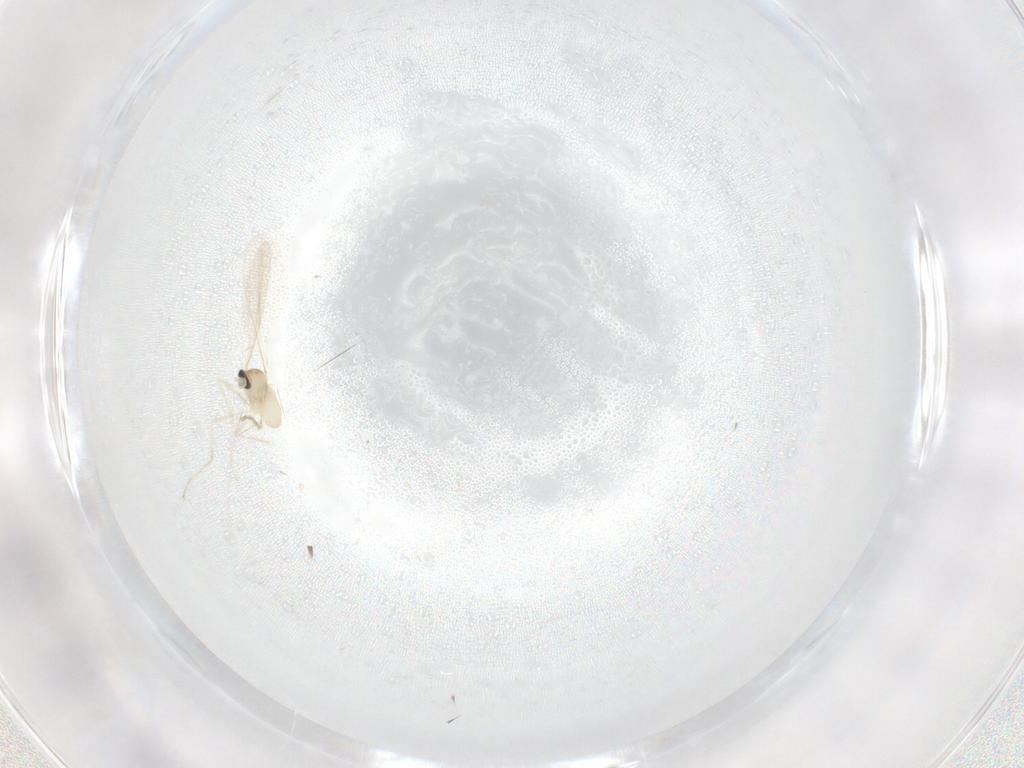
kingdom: Animalia
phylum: Arthropoda
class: Insecta
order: Diptera
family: Cecidomyiidae
